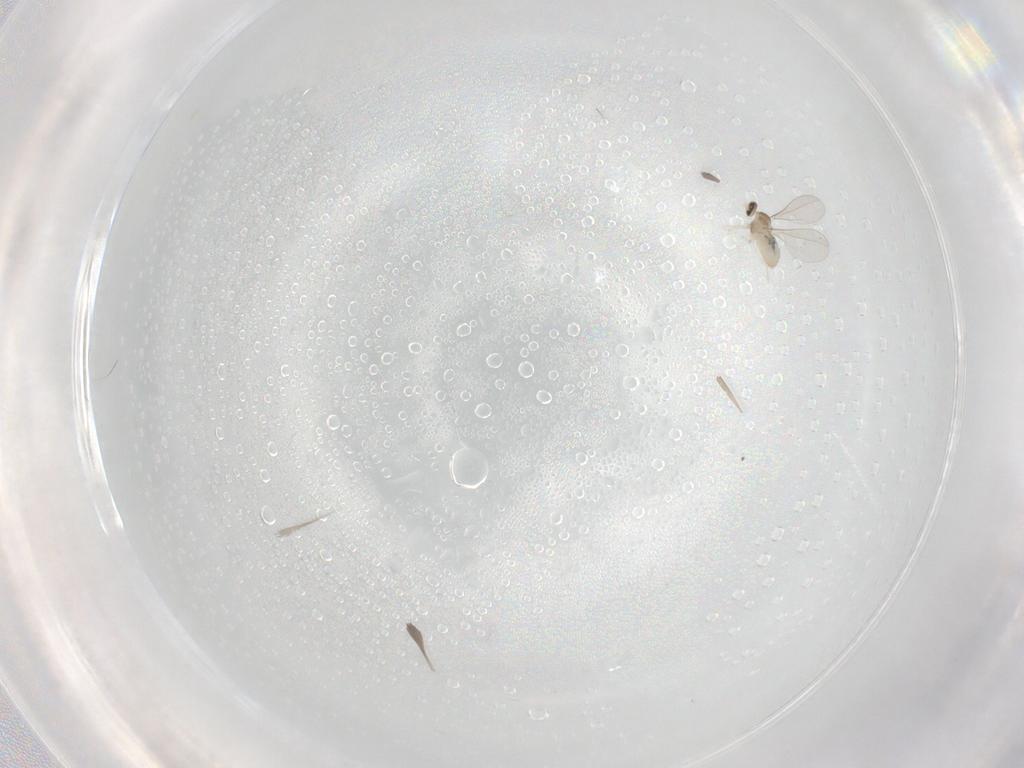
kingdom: Animalia
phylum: Arthropoda
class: Insecta
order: Diptera
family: Cecidomyiidae
